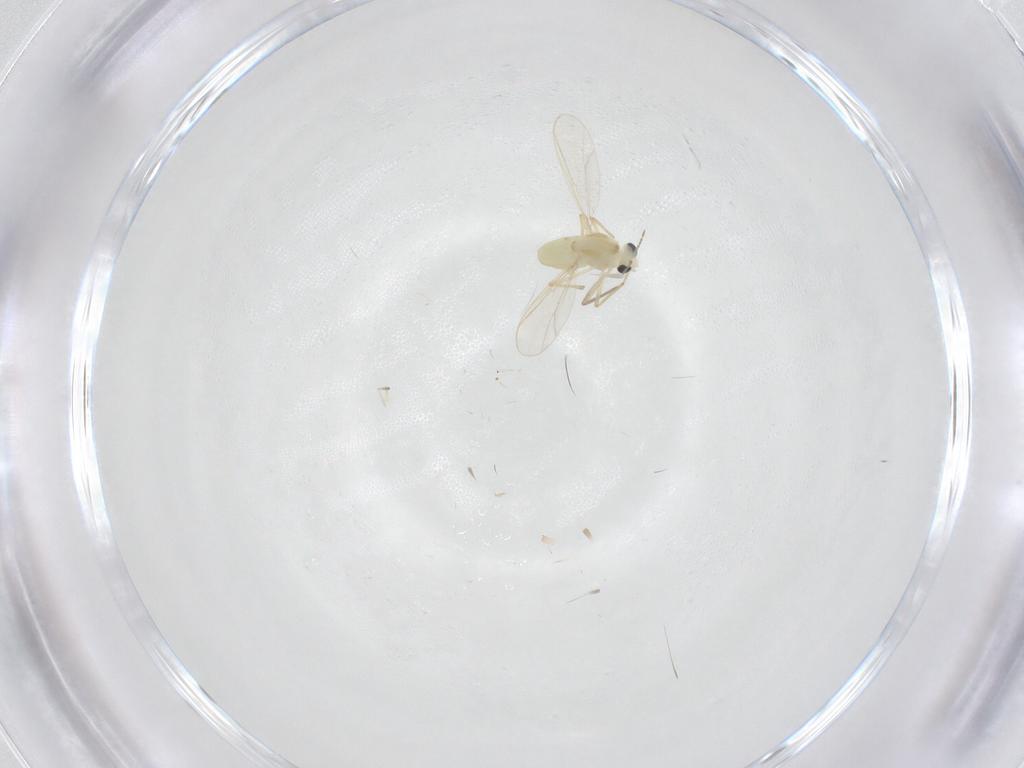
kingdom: Animalia
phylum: Arthropoda
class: Insecta
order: Diptera
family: Chironomidae
